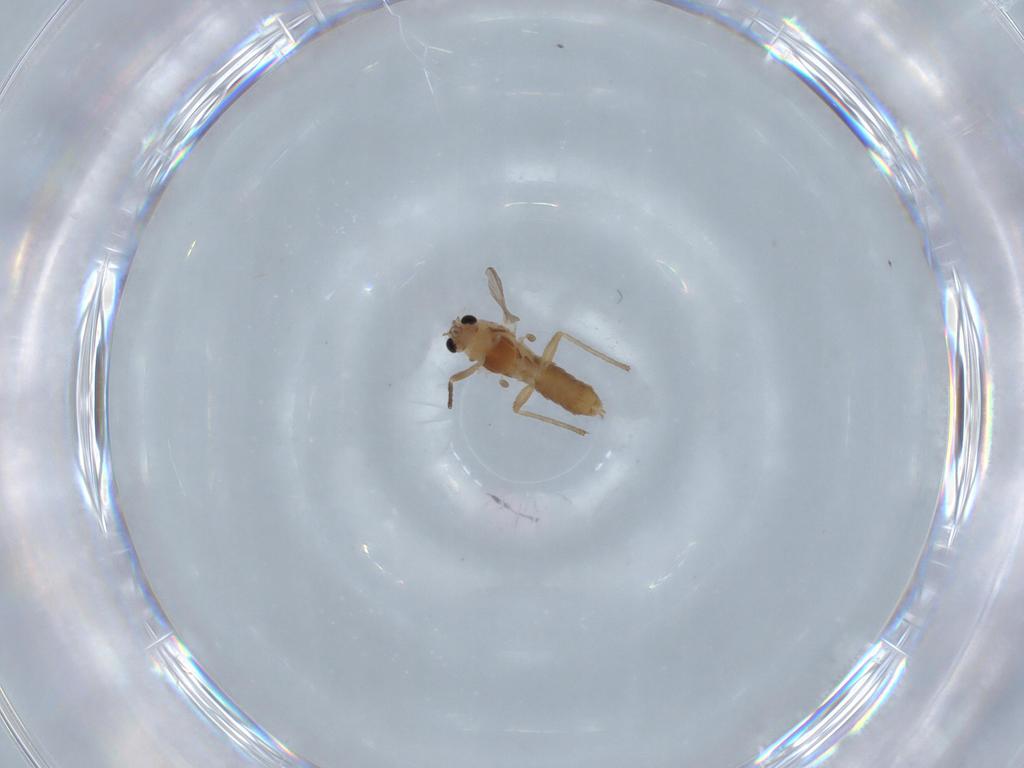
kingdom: Animalia
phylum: Arthropoda
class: Insecta
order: Diptera
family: Chironomidae
